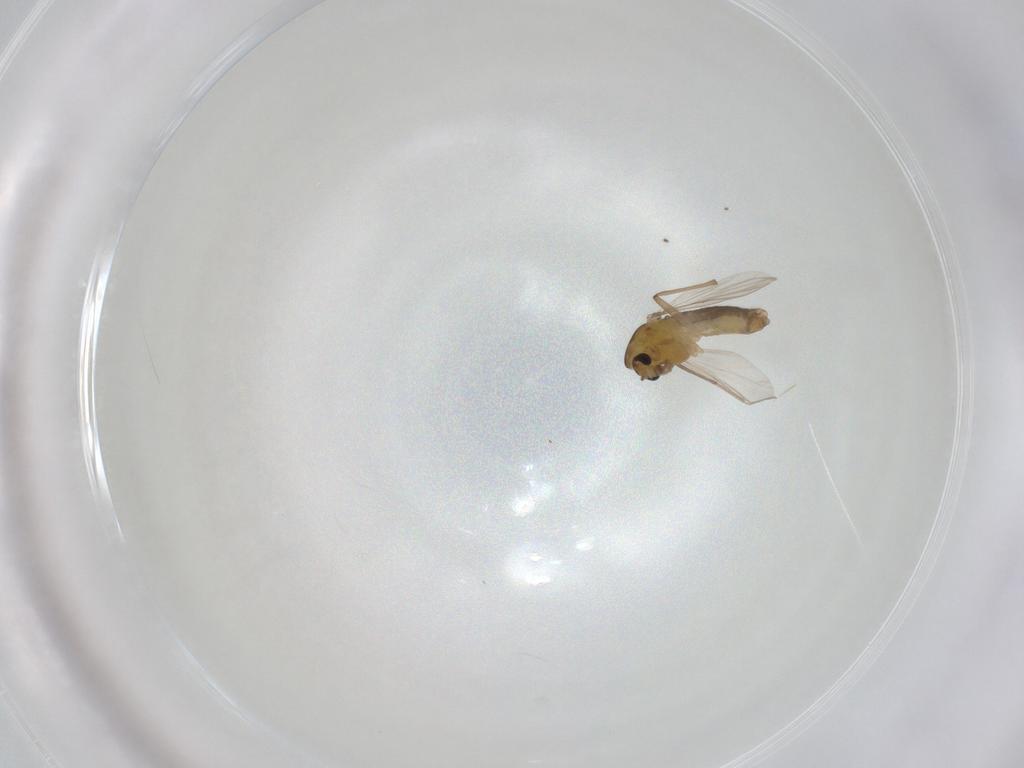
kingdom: Animalia
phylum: Arthropoda
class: Insecta
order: Diptera
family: Chironomidae
